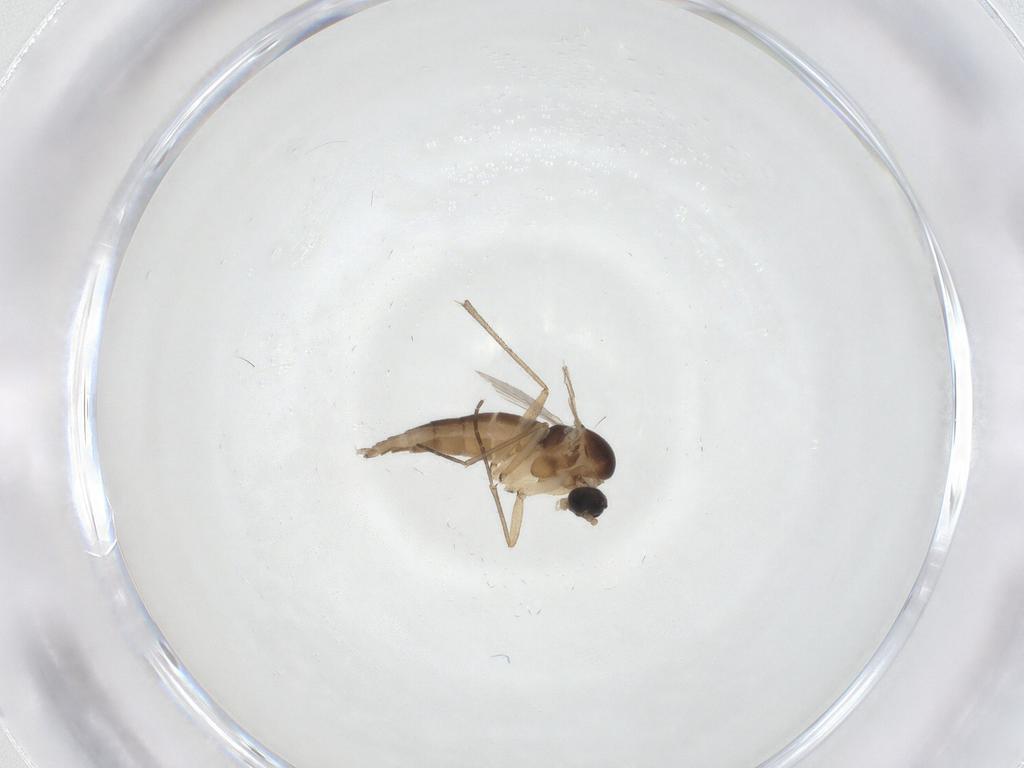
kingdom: Animalia
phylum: Arthropoda
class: Insecta
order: Diptera
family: Sciaridae
